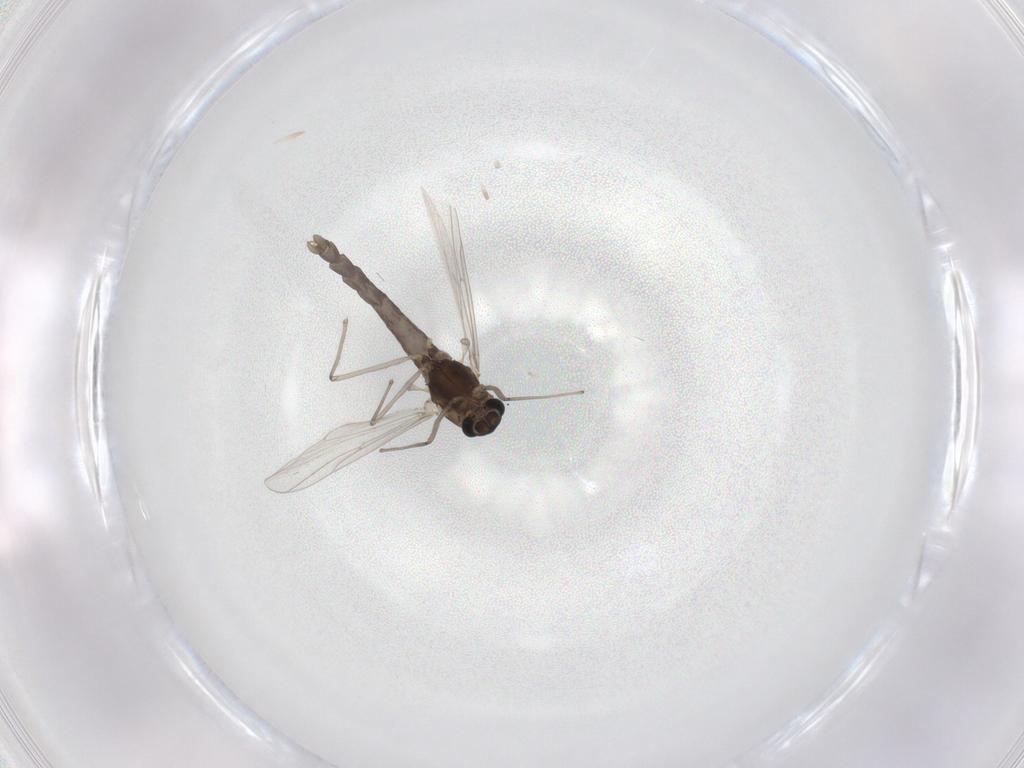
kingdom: Animalia
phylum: Arthropoda
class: Insecta
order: Diptera
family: Chironomidae
